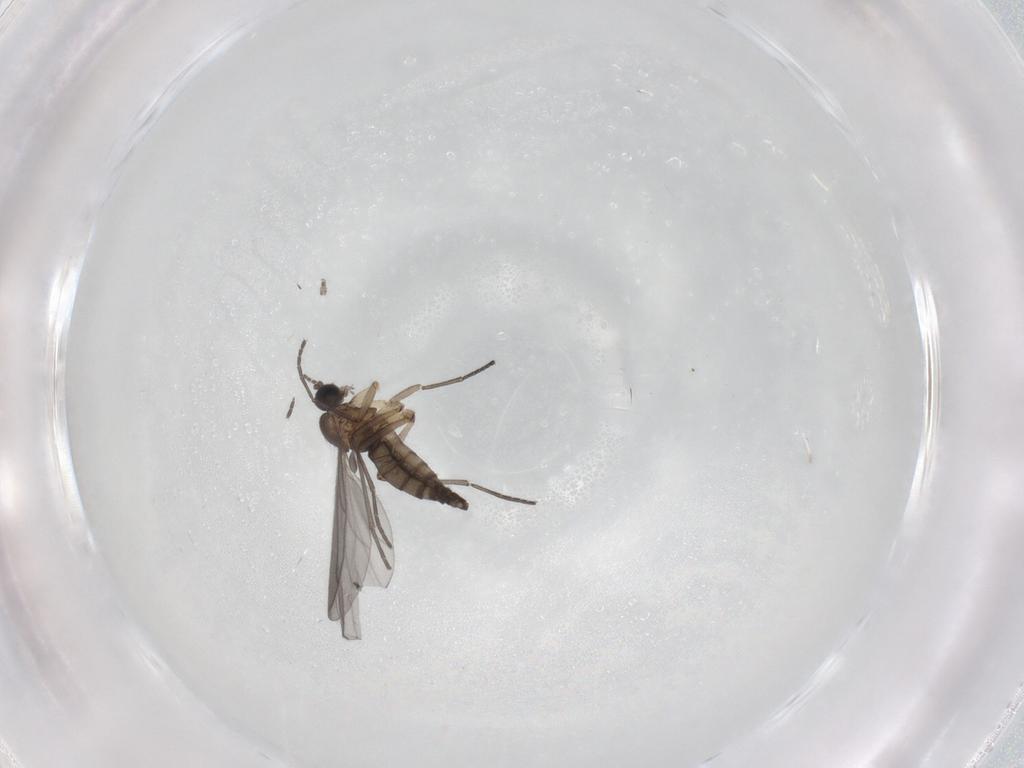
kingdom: Animalia
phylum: Arthropoda
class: Insecta
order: Diptera
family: Sciaridae
